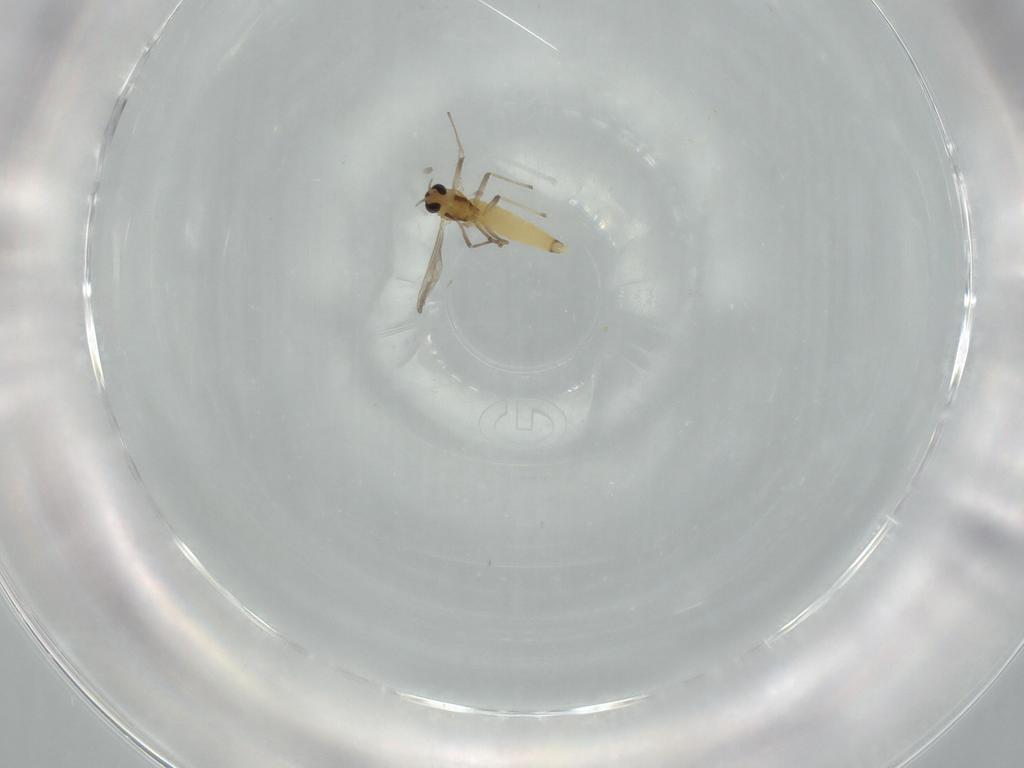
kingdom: Animalia
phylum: Arthropoda
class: Insecta
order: Diptera
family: Chironomidae
